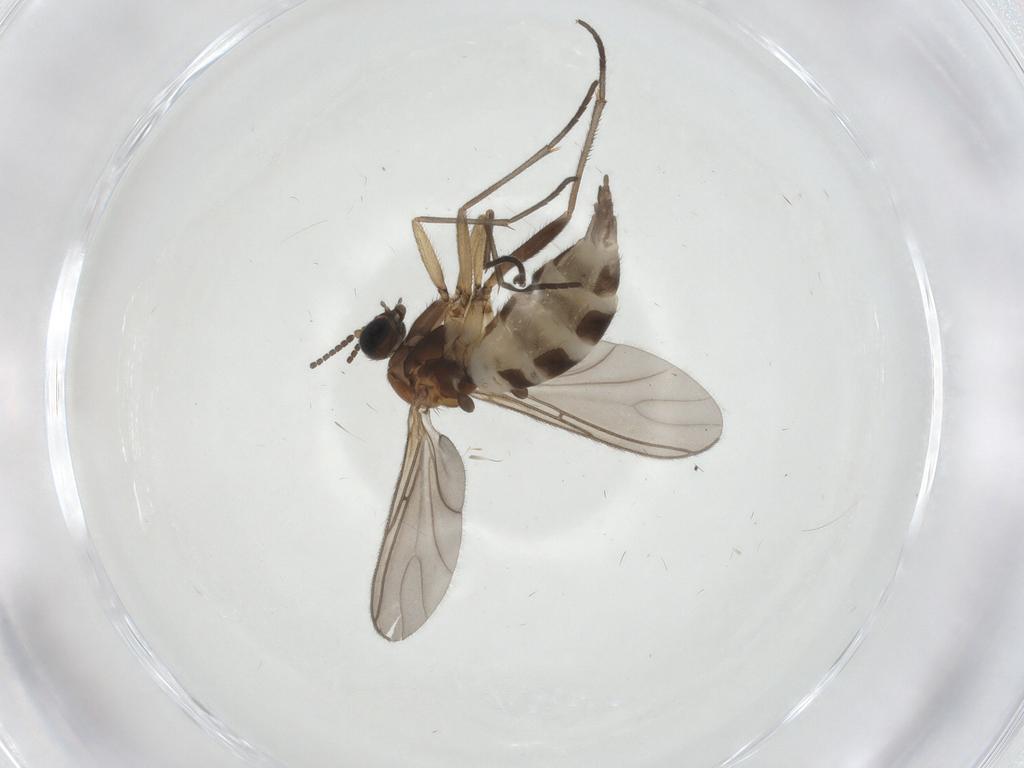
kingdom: Animalia
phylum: Arthropoda
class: Insecta
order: Diptera
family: Sciaridae
